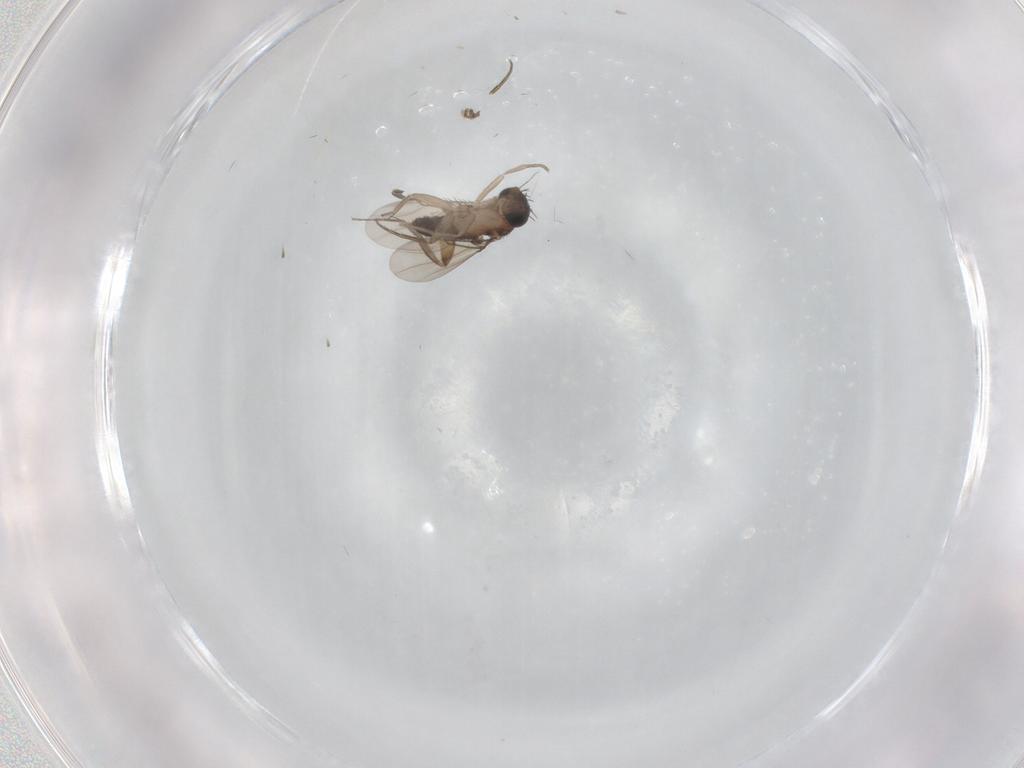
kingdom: Animalia
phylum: Arthropoda
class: Insecta
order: Diptera
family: Phoridae
